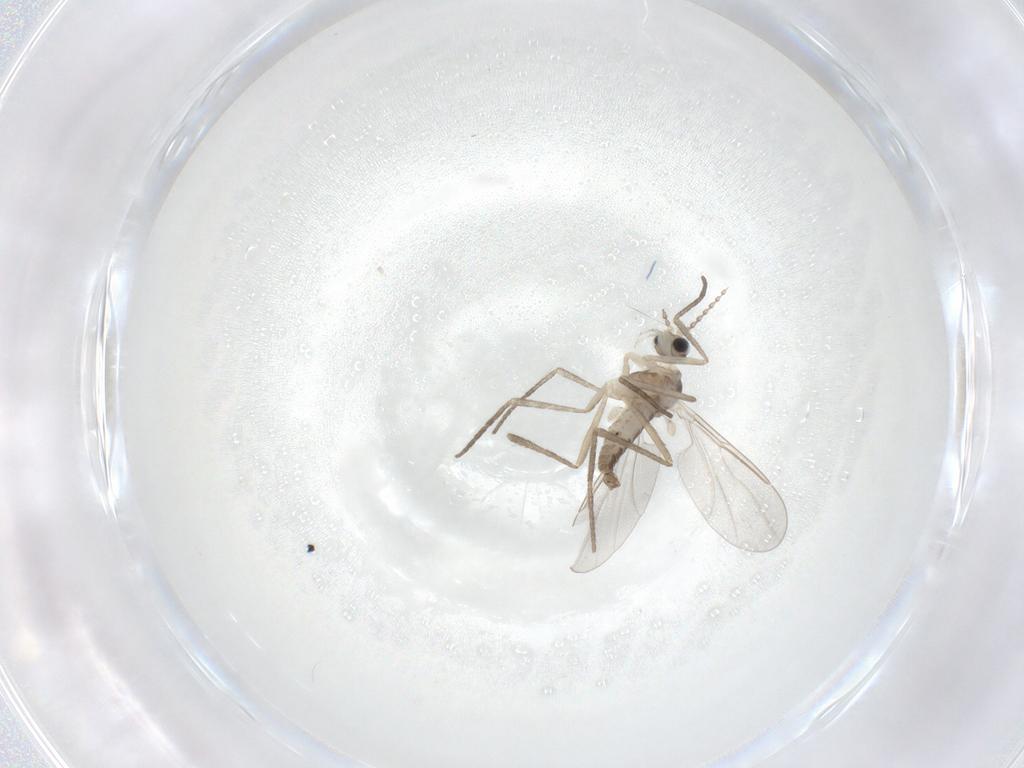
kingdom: Animalia
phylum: Arthropoda
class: Insecta
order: Diptera
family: Cecidomyiidae
